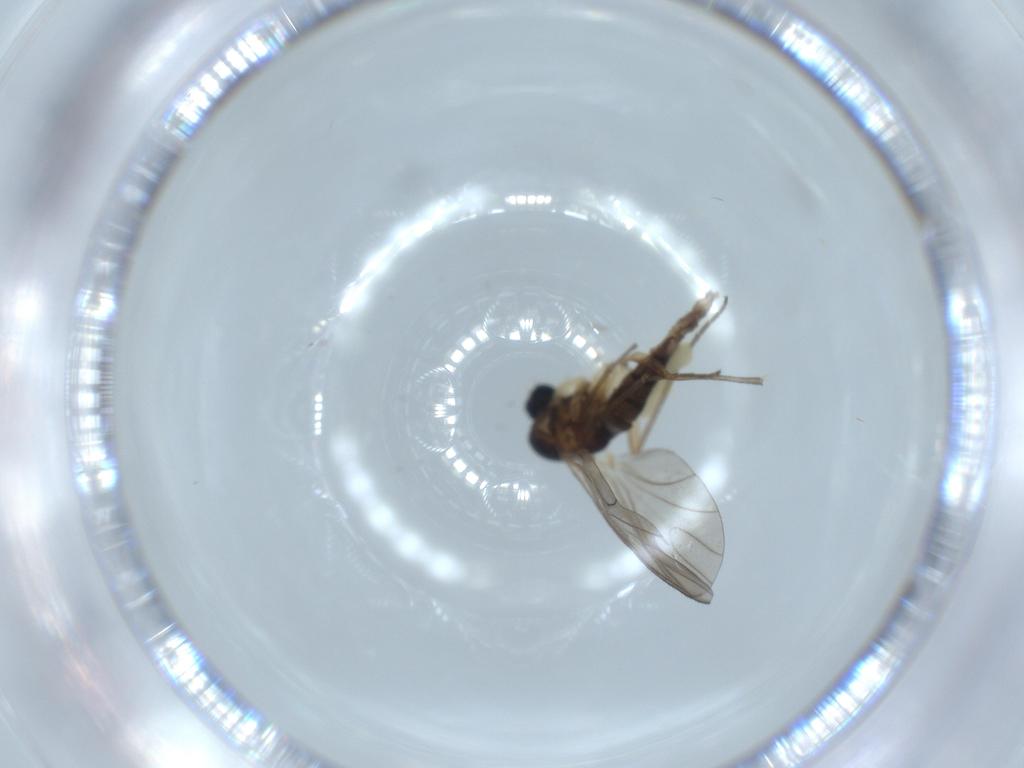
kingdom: Animalia
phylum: Arthropoda
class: Insecta
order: Diptera
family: Sciaridae
